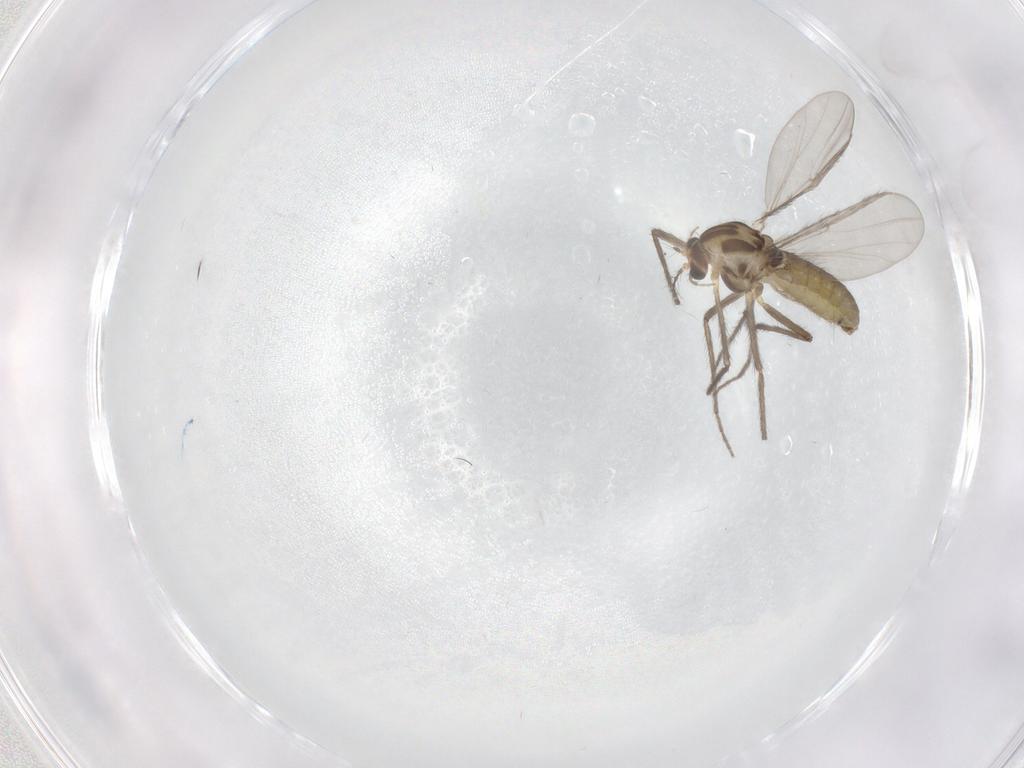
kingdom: Animalia
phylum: Arthropoda
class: Insecta
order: Diptera
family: Chironomidae
